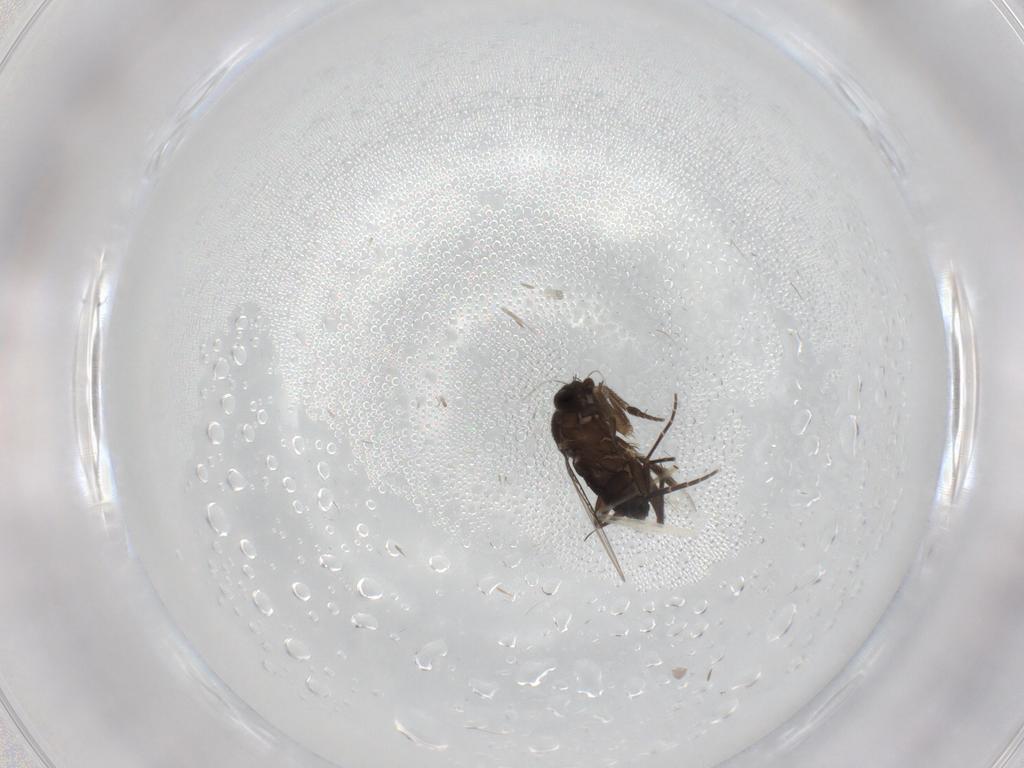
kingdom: Animalia
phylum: Arthropoda
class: Insecta
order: Diptera
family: Phoridae
